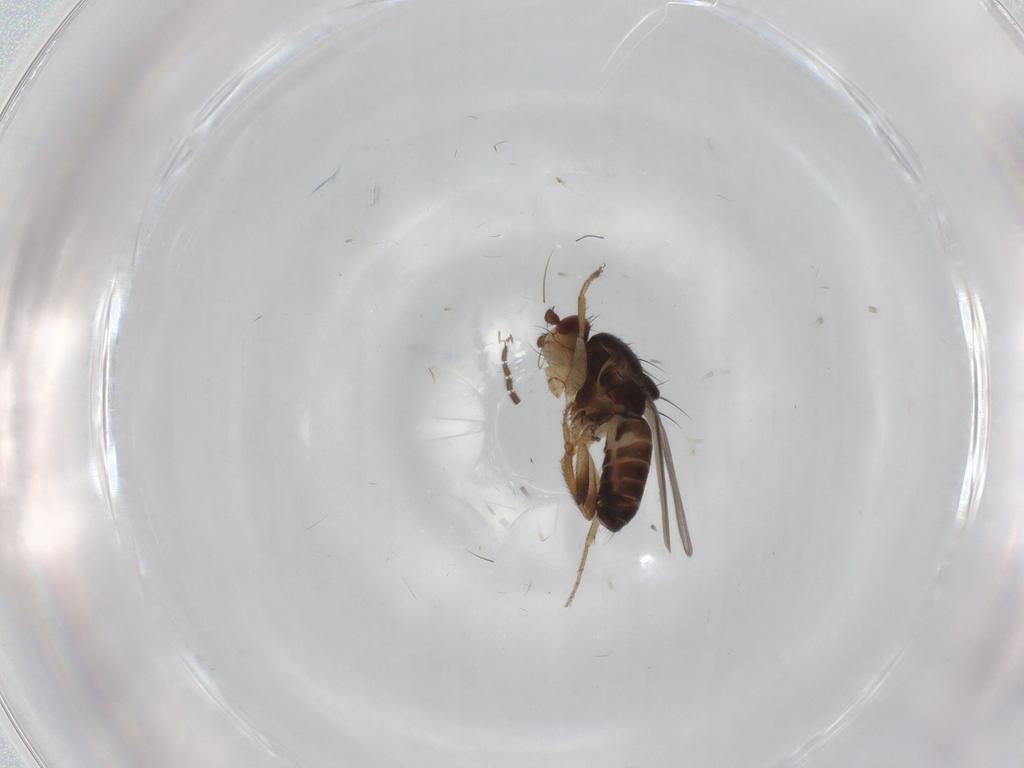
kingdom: Animalia
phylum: Arthropoda
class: Insecta
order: Diptera
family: Sphaeroceridae
